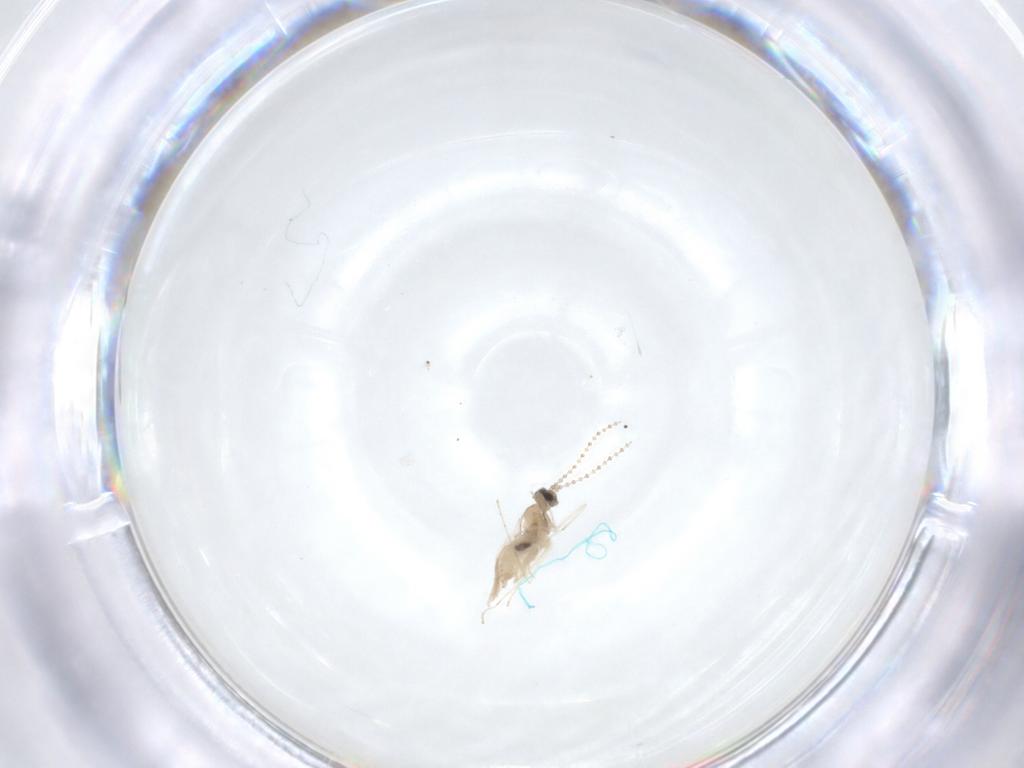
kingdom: Animalia
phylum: Arthropoda
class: Insecta
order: Diptera
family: Cecidomyiidae
